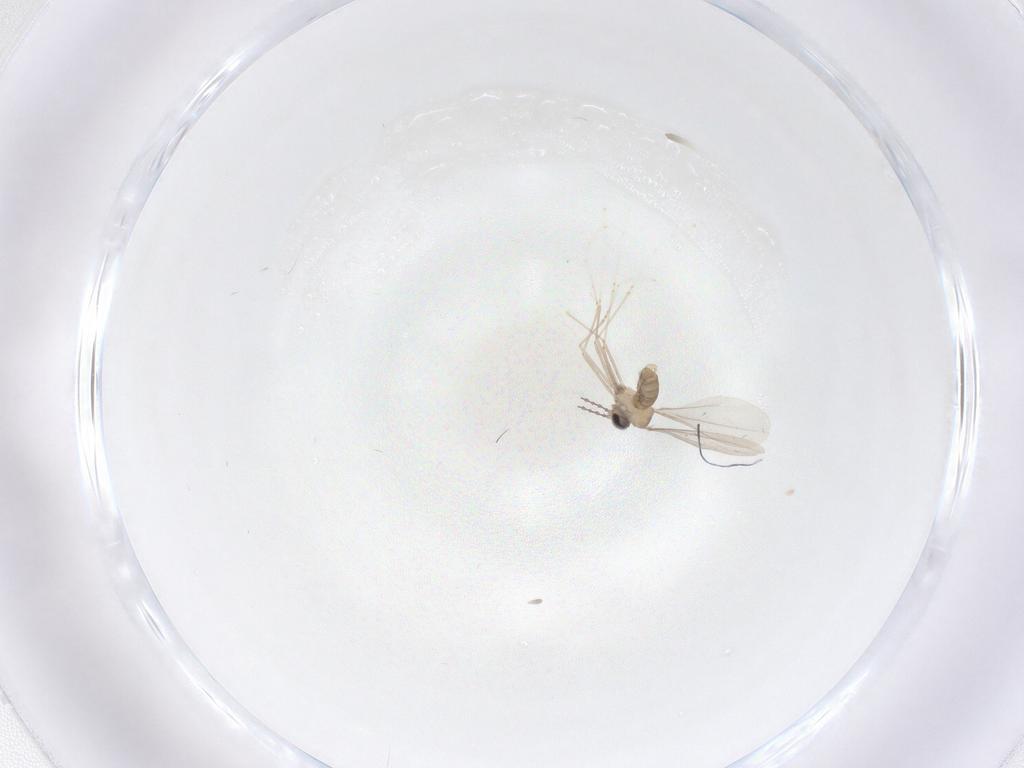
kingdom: Animalia
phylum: Arthropoda
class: Insecta
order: Diptera
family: Cecidomyiidae
